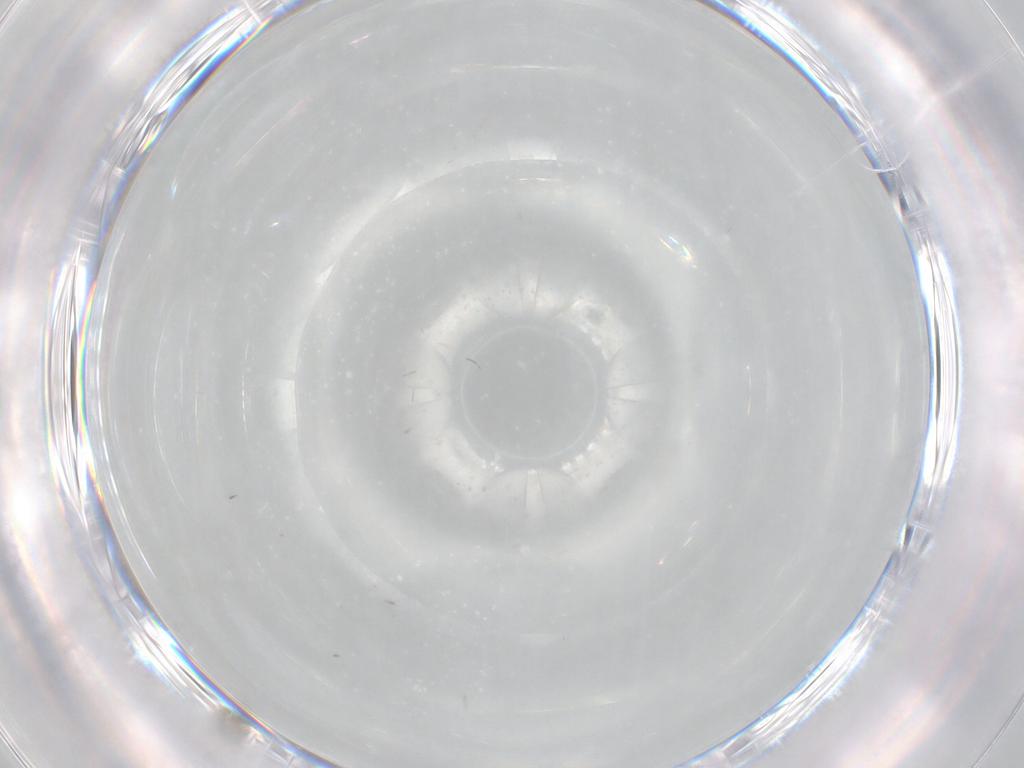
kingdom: Animalia
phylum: Arthropoda
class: Insecta
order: Diptera
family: Cecidomyiidae
